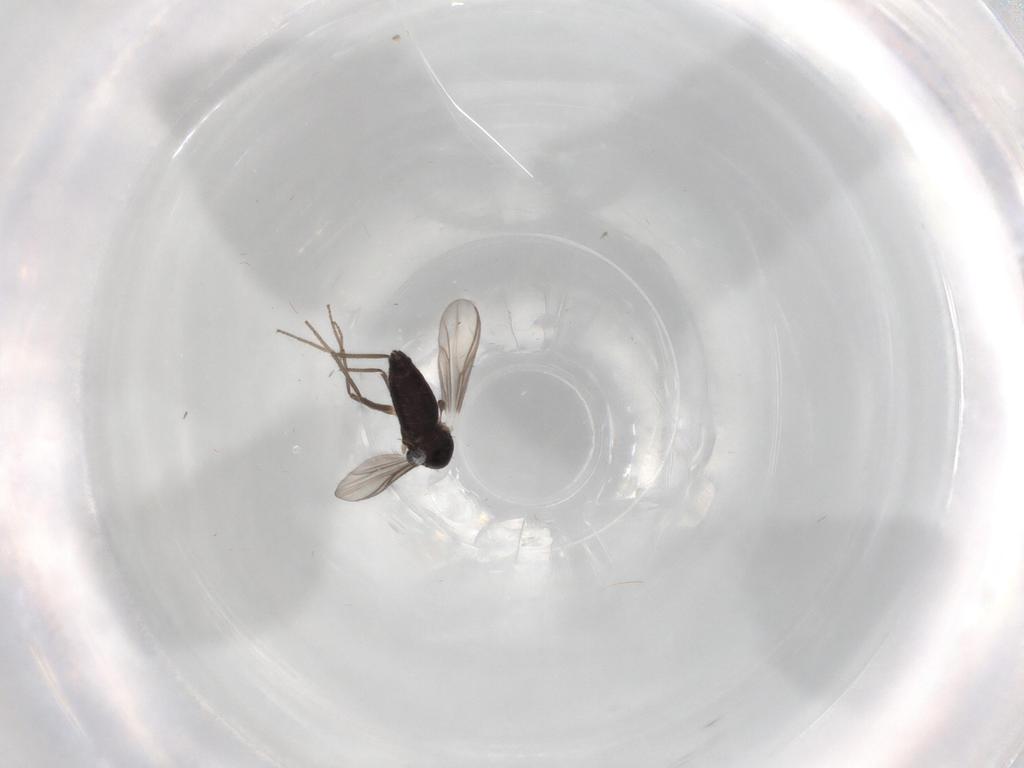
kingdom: Animalia
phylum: Arthropoda
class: Insecta
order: Diptera
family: Chironomidae
